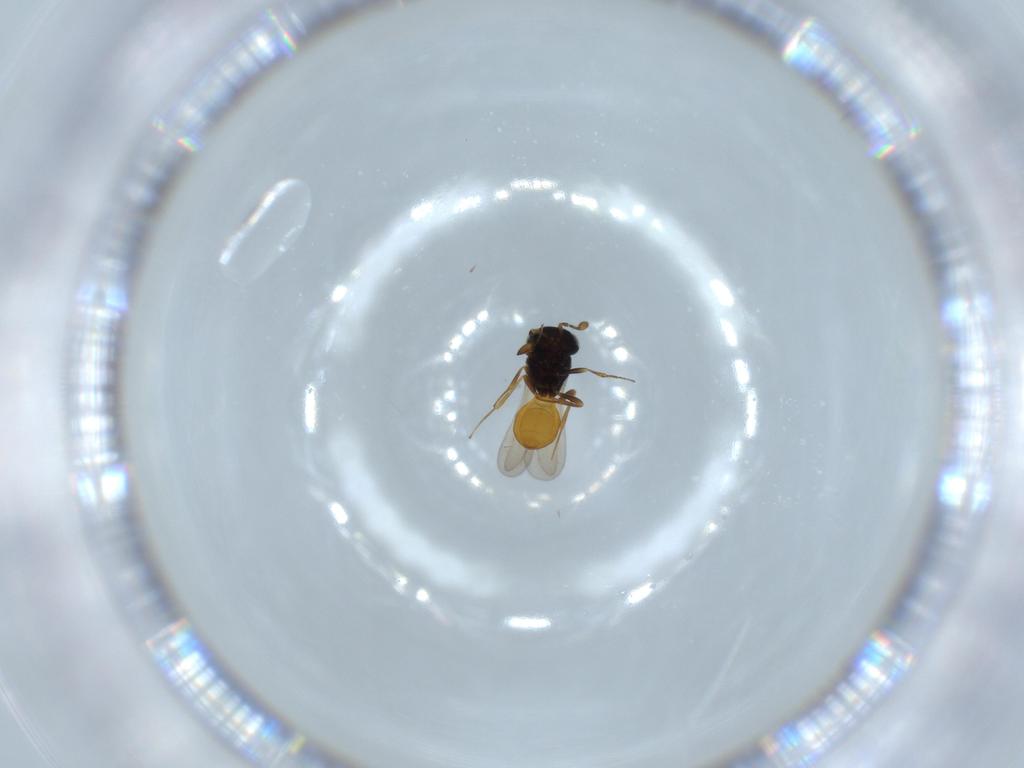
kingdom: Animalia
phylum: Arthropoda
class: Insecta
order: Hymenoptera
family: Scelionidae
